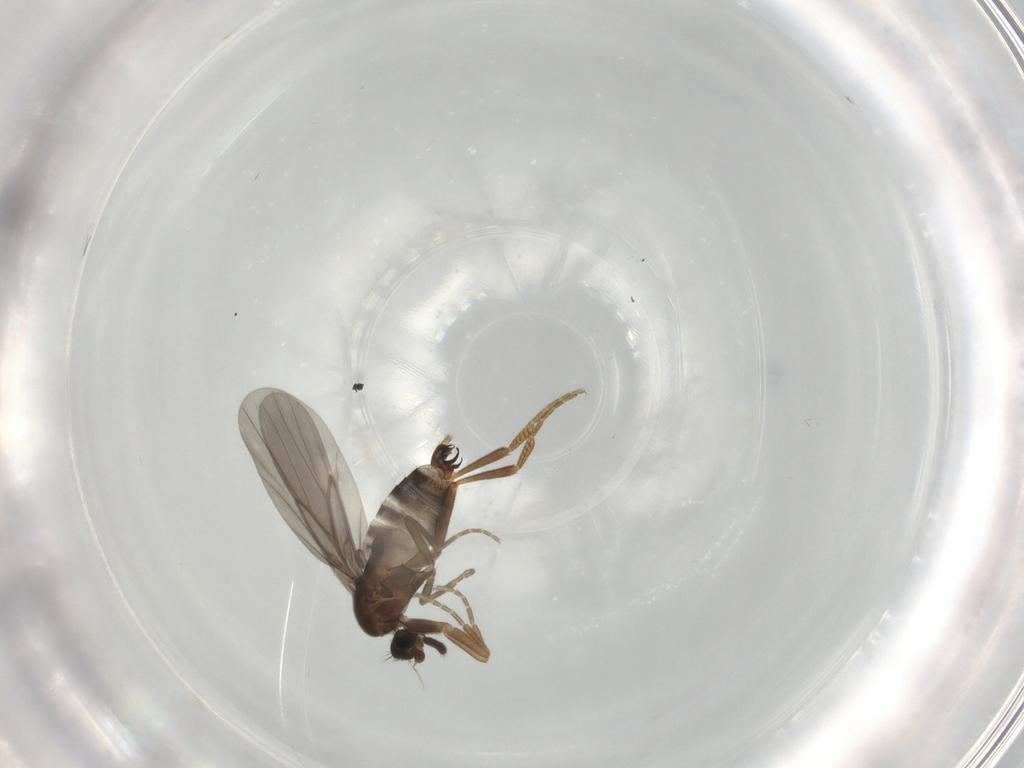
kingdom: Animalia
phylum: Arthropoda
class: Insecta
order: Diptera
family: Phoridae
